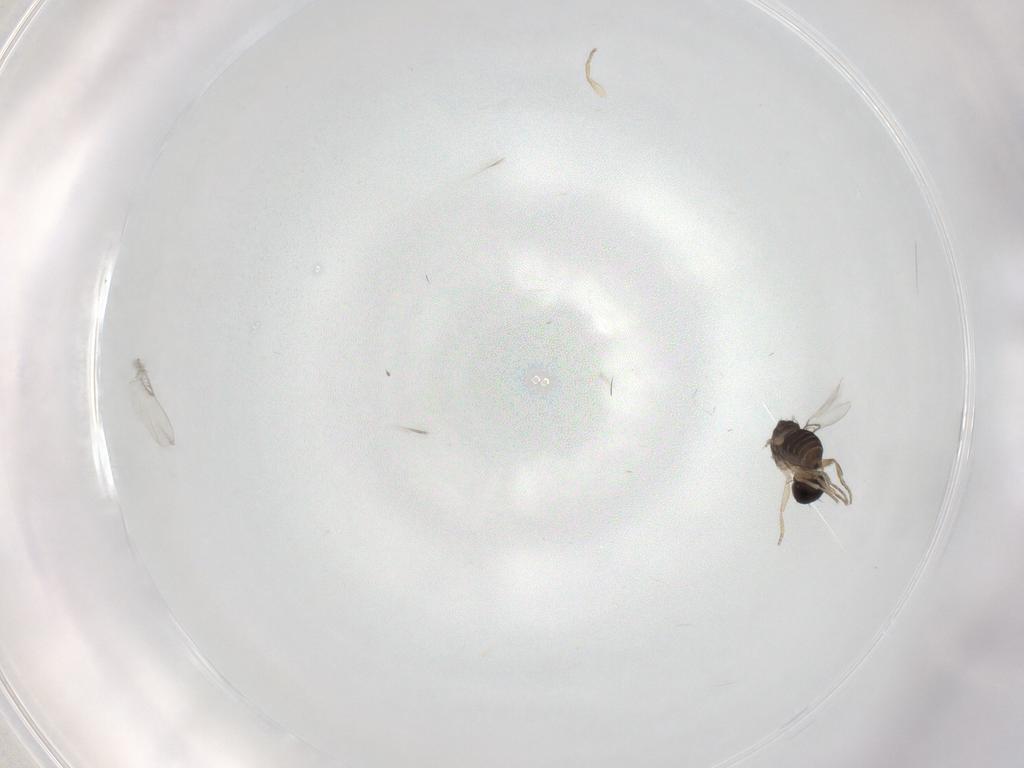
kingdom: Animalia
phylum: Arthropoda
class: Insecta
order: Diptera
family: Phoridae
